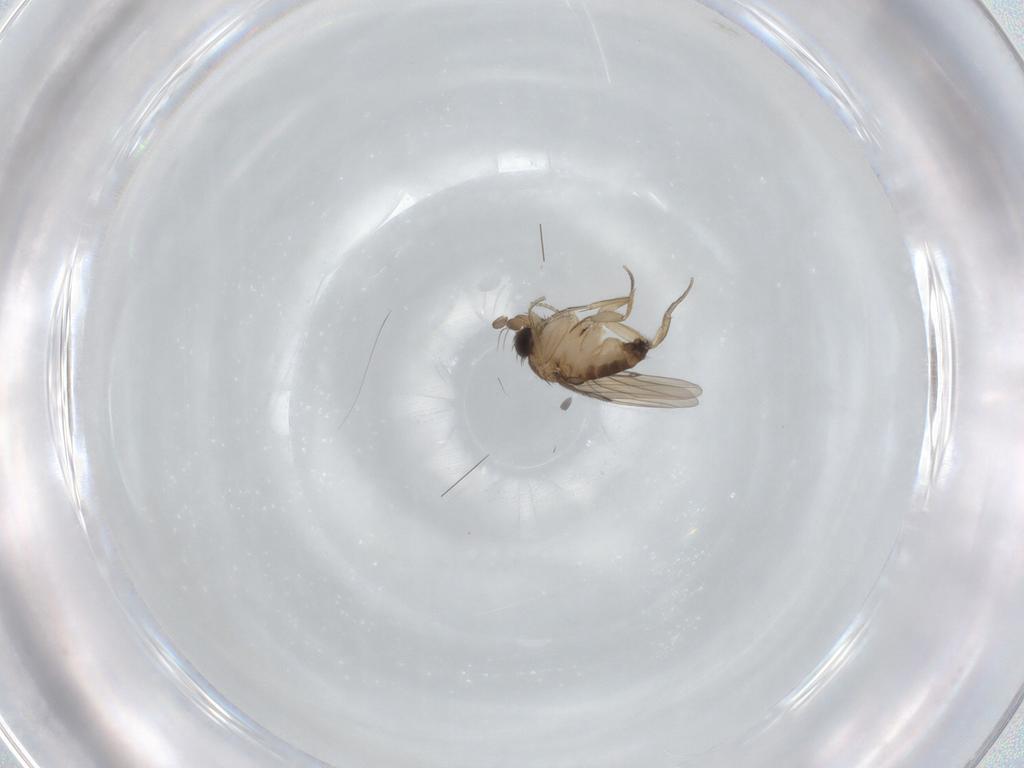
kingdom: Animalia
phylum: Arthropoda
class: Insecta
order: Diptera
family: Phoridae
